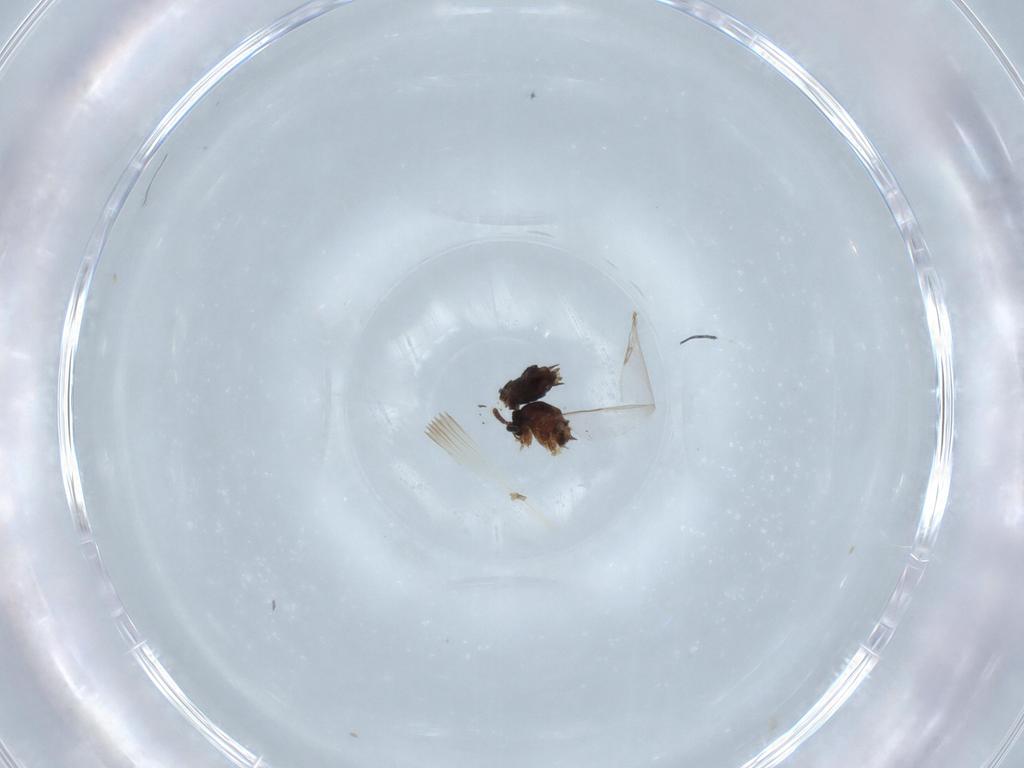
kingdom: Animalia
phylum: Arthropoda
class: Insecta
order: Diptera
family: Scatopsidae
